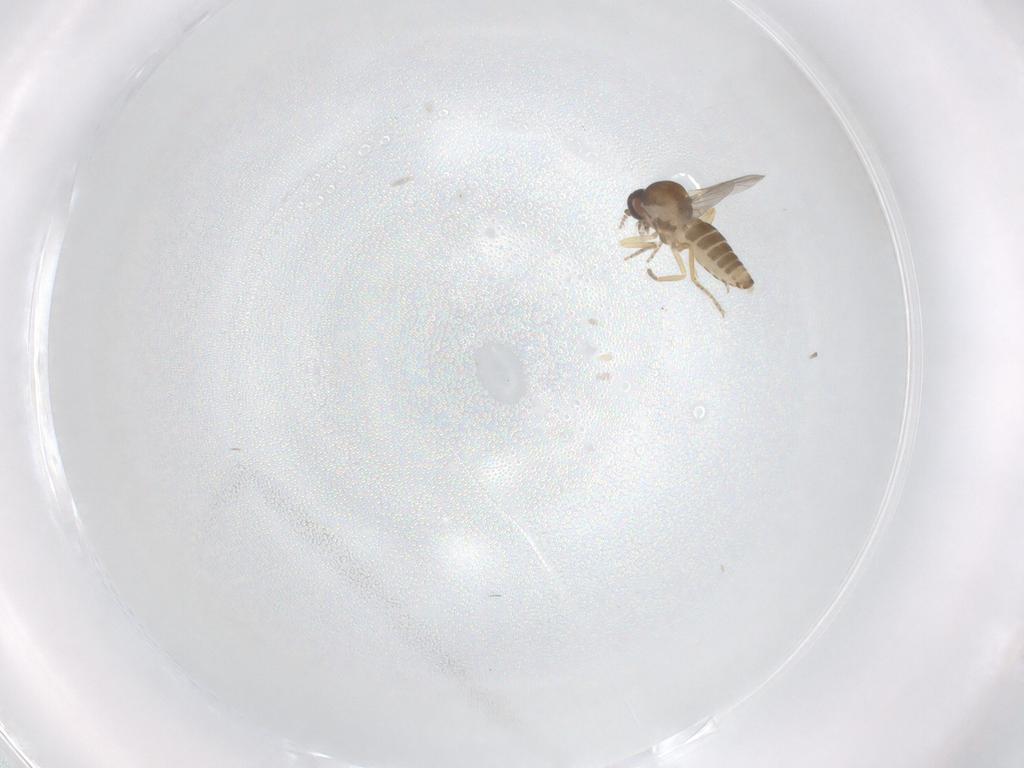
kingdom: Animalia
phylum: Arthropoda
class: Insecta
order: Diptera
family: Ceratopogonidae
